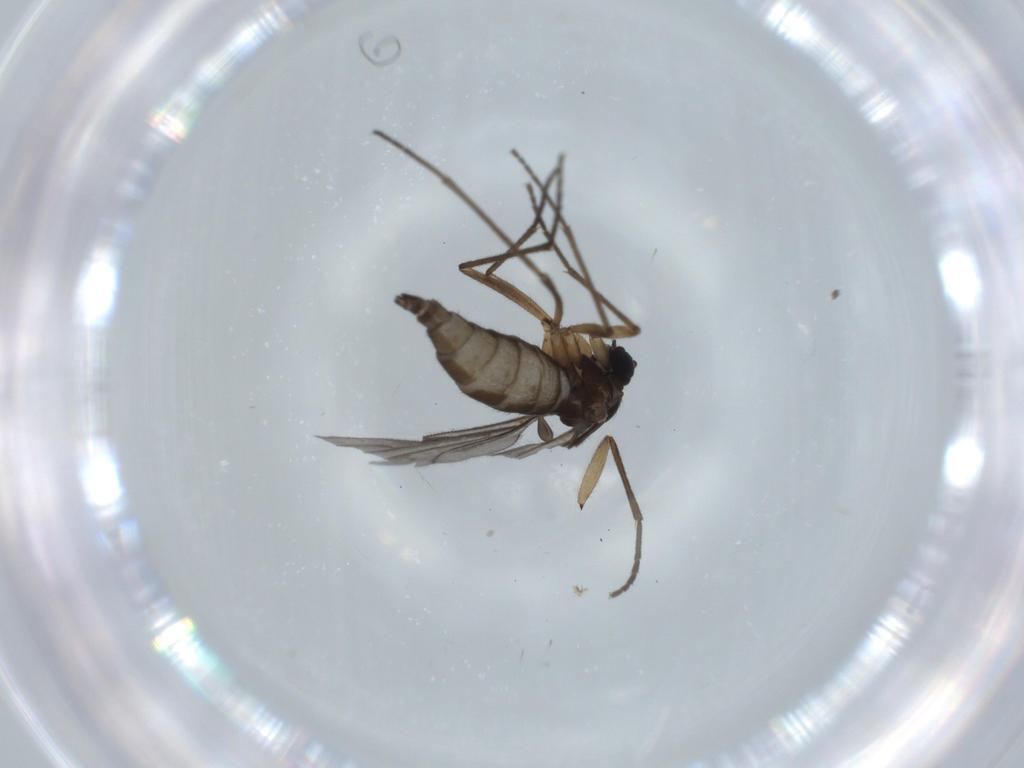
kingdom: Animalia
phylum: Arthropoda
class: Insecta
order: Diptera
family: Sciaridae
